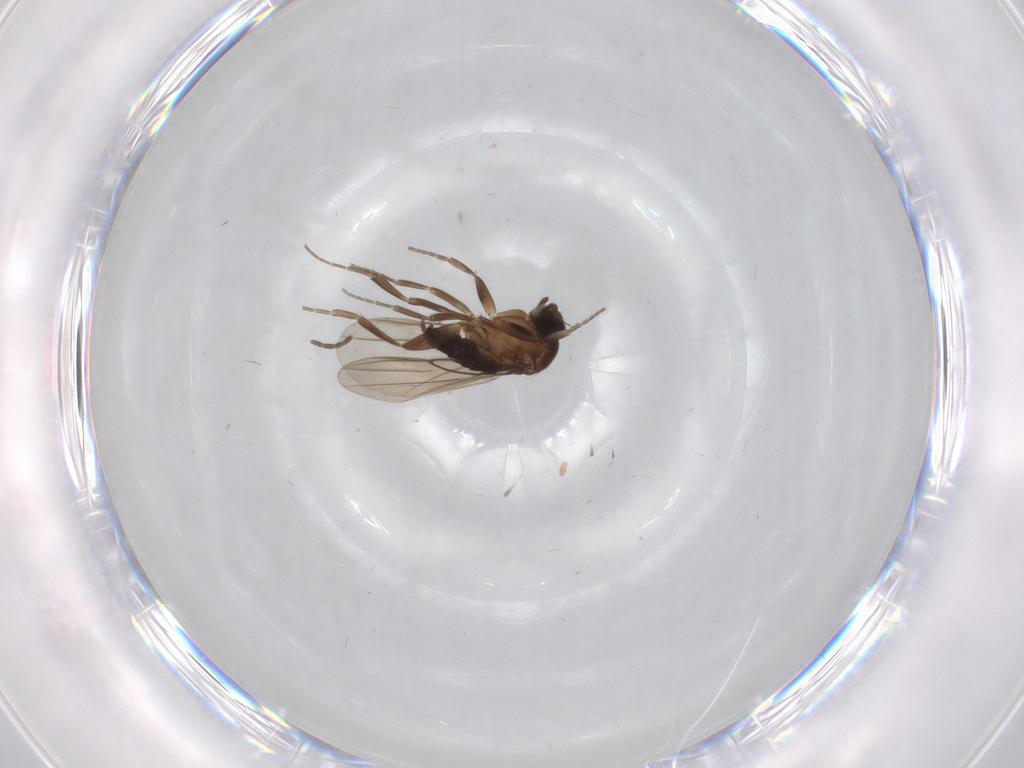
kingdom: Animalia
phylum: Arthropoda
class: Insecta
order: Diptera
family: Phoridae
